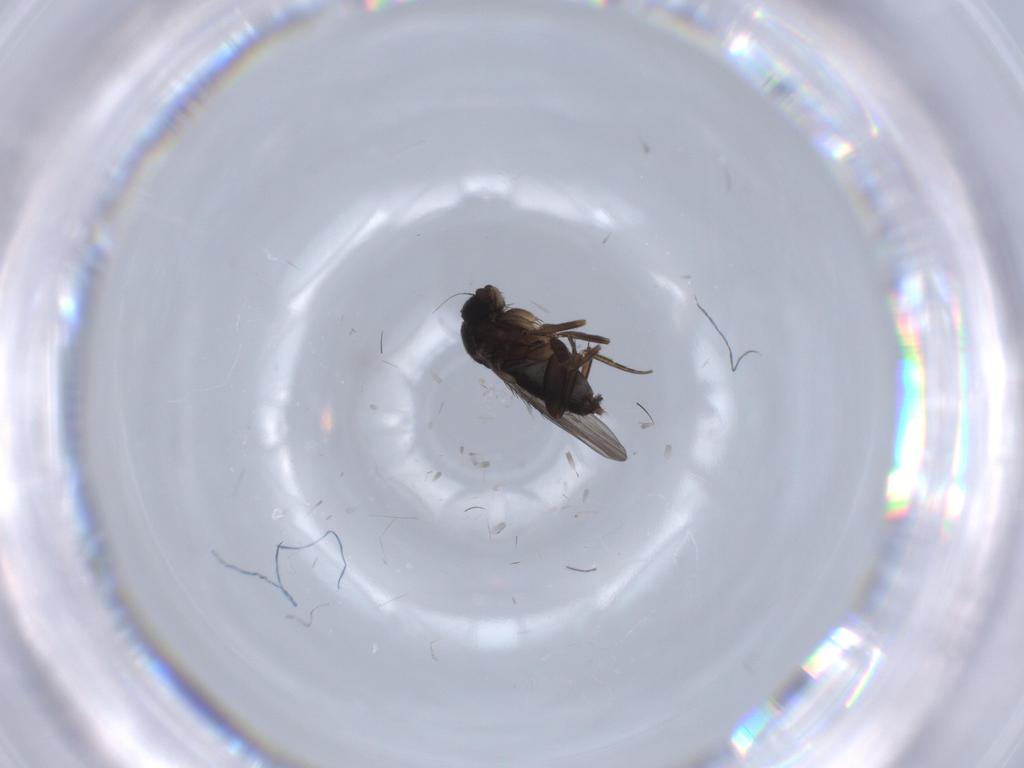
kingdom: Animalia
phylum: Arthropoda
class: Insecta
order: Diptera
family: Phoridae
